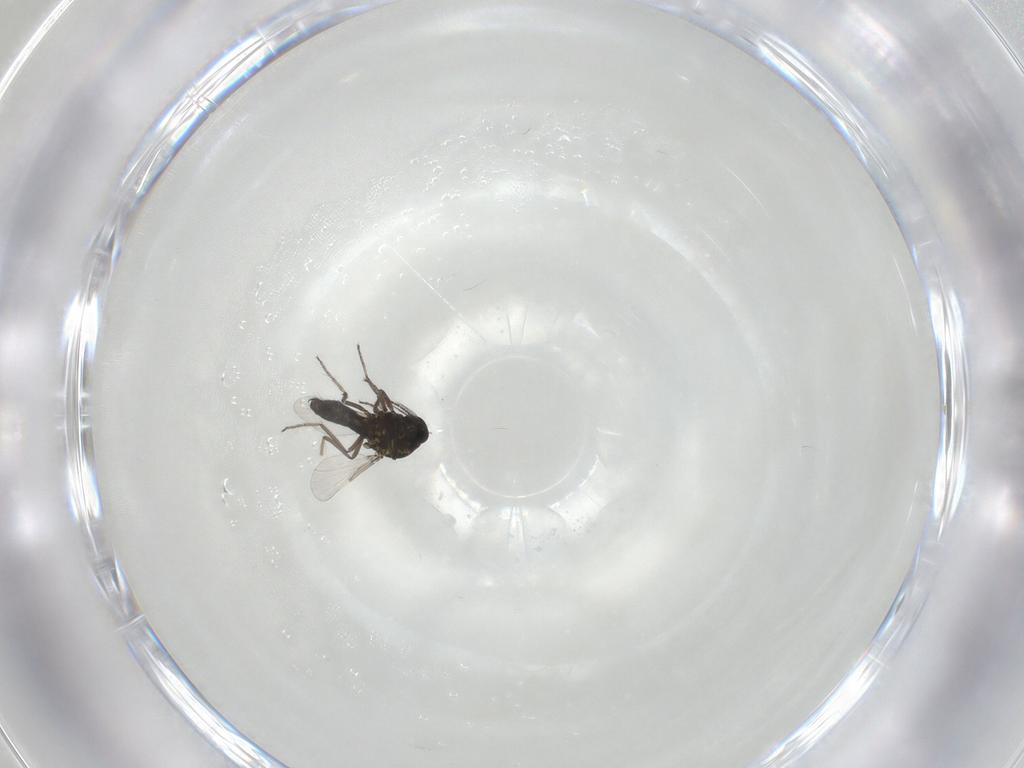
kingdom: Animalia
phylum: Arthropoda
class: Insecta
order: Diptera
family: Ceratopogonidae
